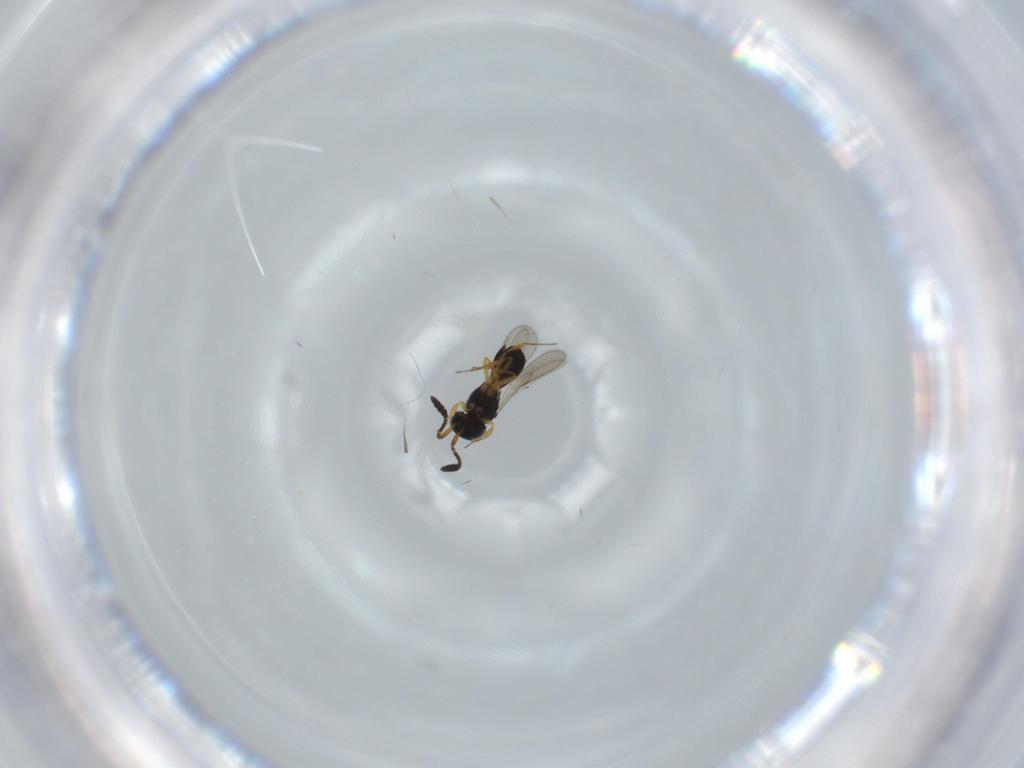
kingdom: Animalia
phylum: Arthropoda
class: Insecta
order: Hymenoptera
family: Scelionidae
